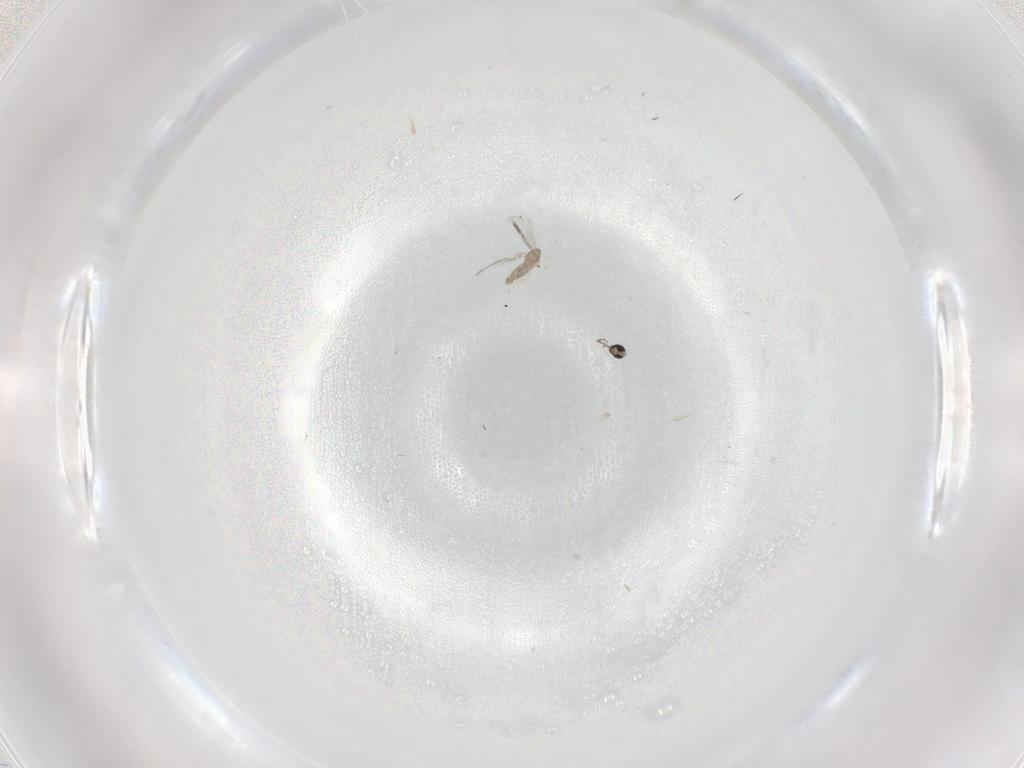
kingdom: Animalia
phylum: Arthropoda
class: Insecta
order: Diptera
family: Cecidomyiidae
